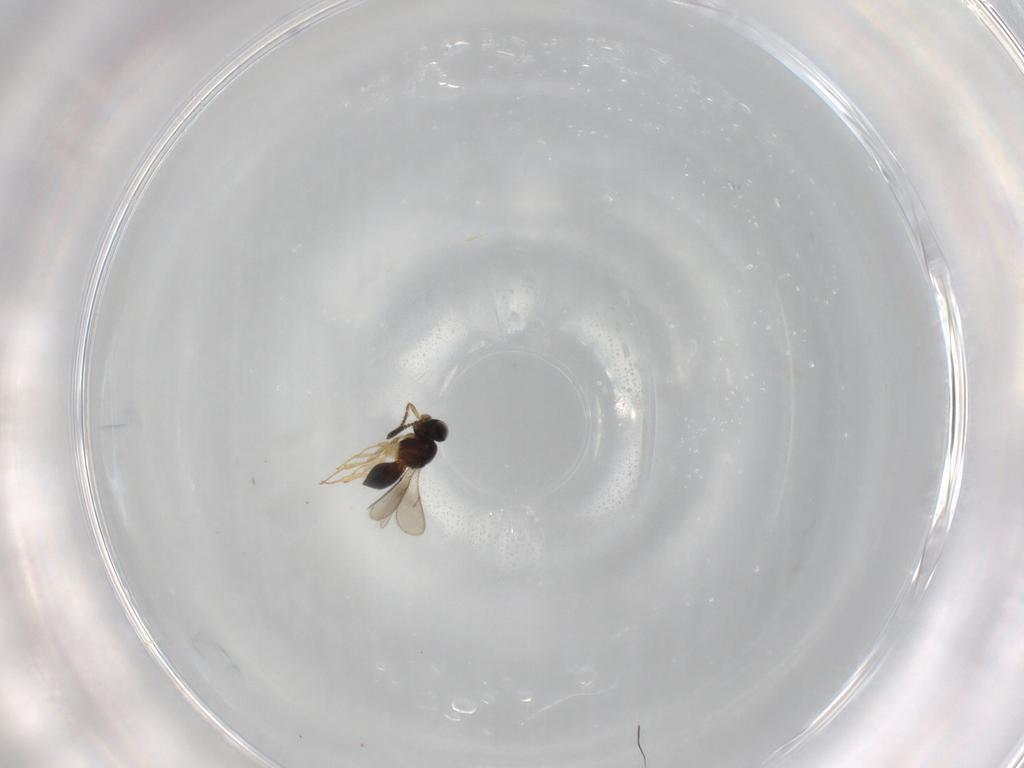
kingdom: Animalia
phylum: Arthropoda
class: Insecta
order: Hymenoptera
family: Scelionidae
